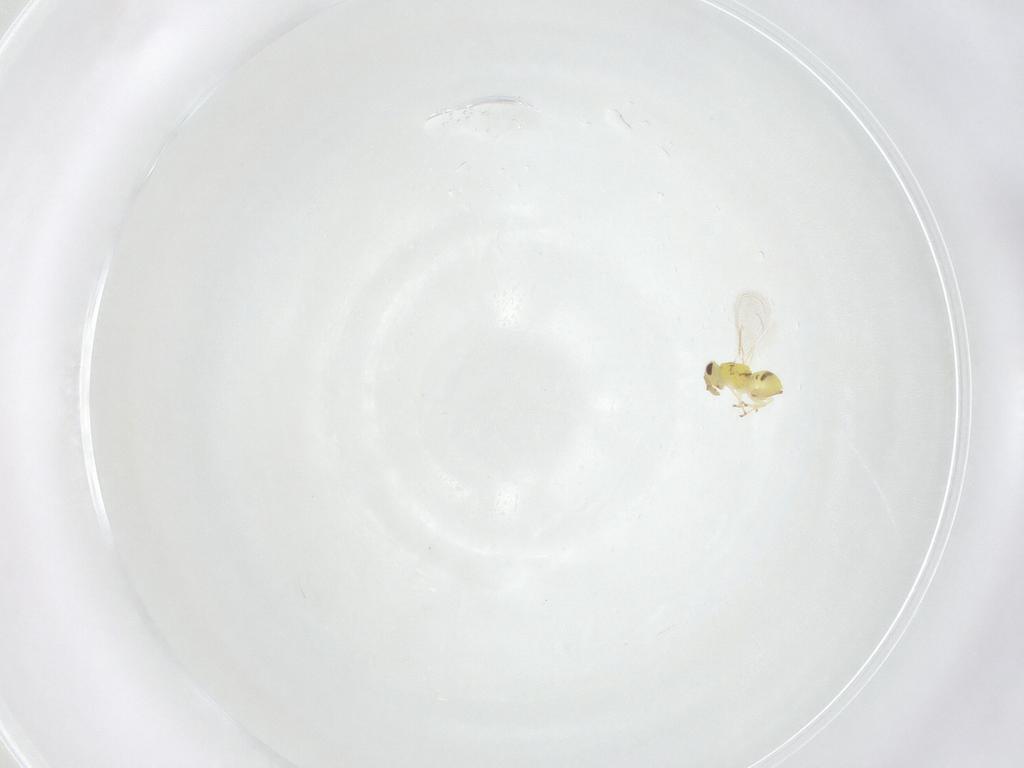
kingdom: Animalia
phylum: Arthropoda
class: Insecta
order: Hymenoptera
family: Eulophidae
